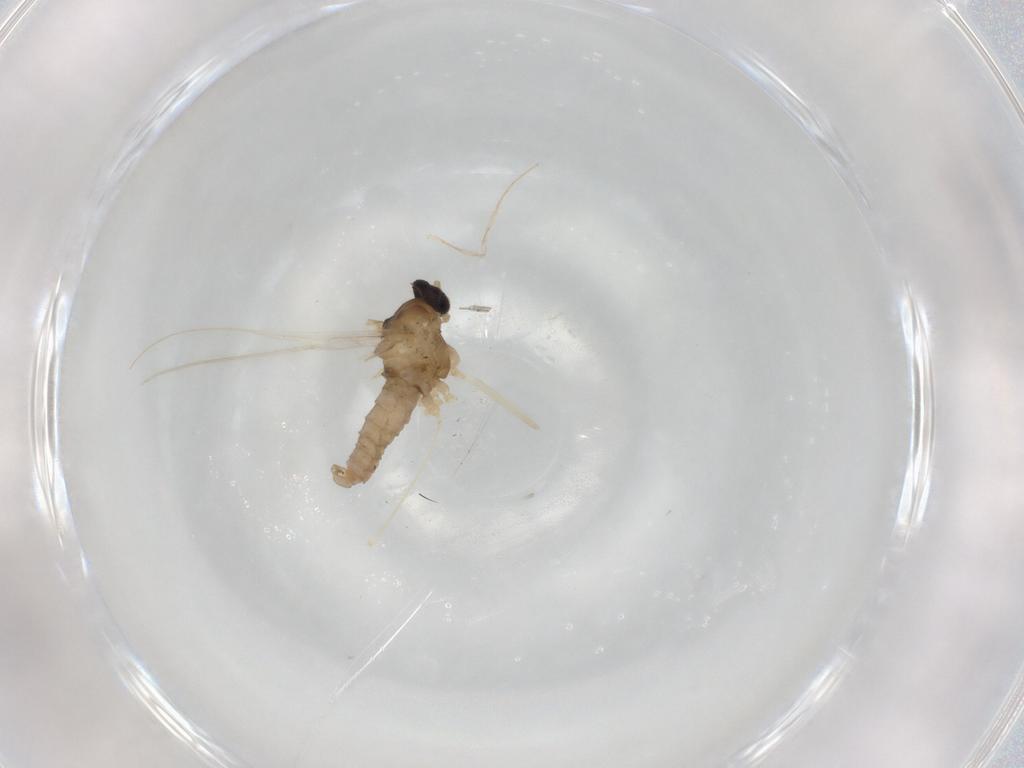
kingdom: Animalia
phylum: Arthropoda
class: Insecta
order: Diptera
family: Cecidomyiidae
